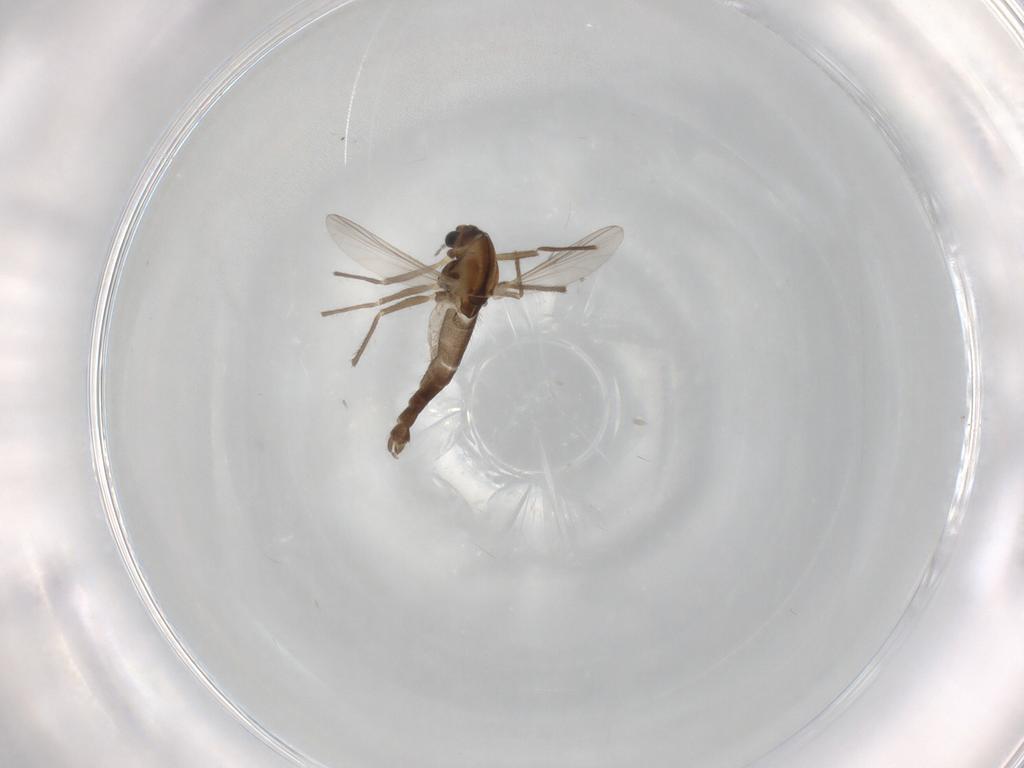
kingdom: Animalia
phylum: Arthropoda
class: Insecta
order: Diptera
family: Chironomidae
